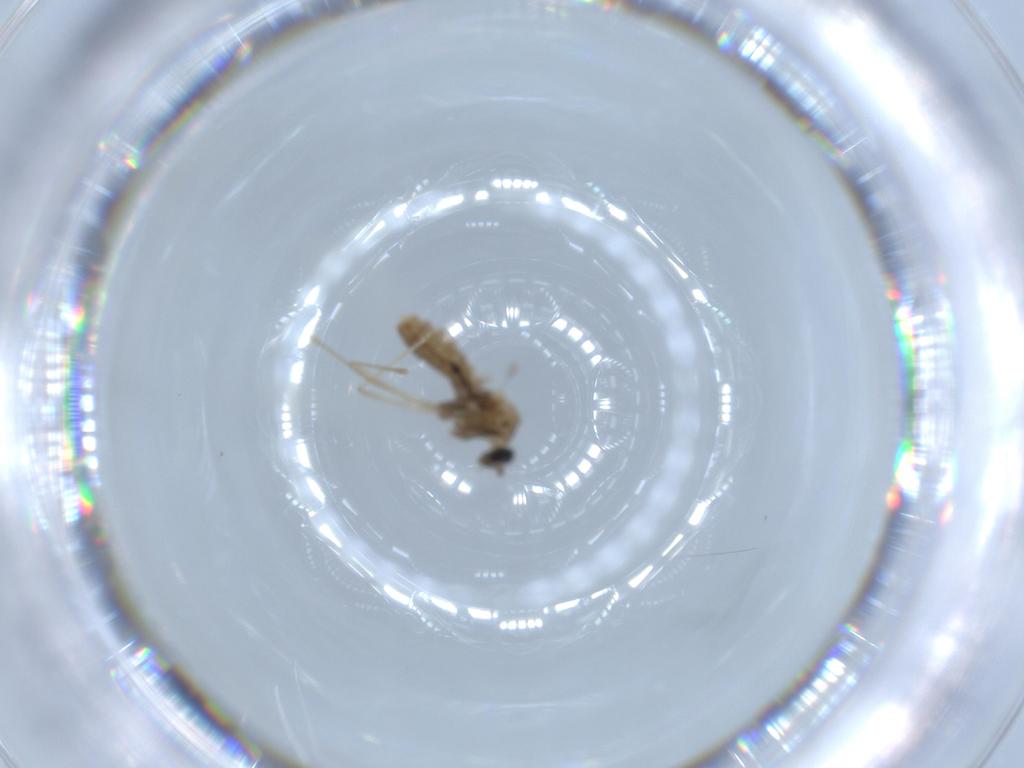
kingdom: Animalia
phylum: Arthropoda
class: Insecta
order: Diptera
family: Cecidomyiidae
